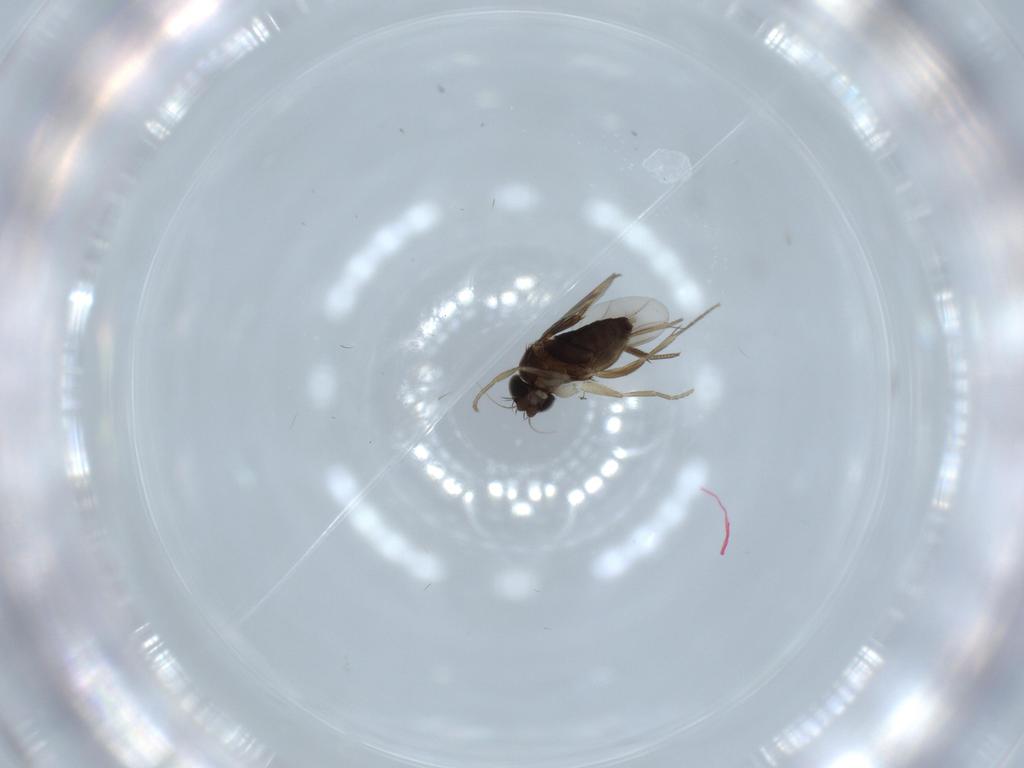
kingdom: Animalia
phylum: Arthropoda
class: Insecta
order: Diptera
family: Phoridae
